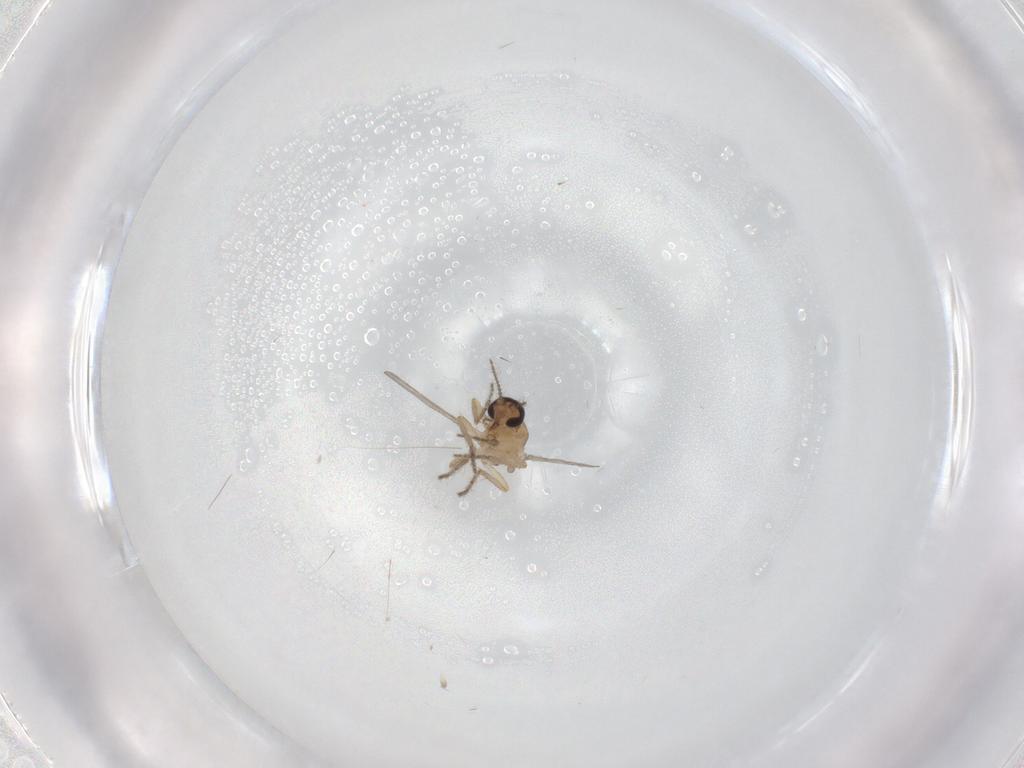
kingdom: Animalia
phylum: Arthropoda
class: Insecta
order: Diptera
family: Ceratopogonidae
